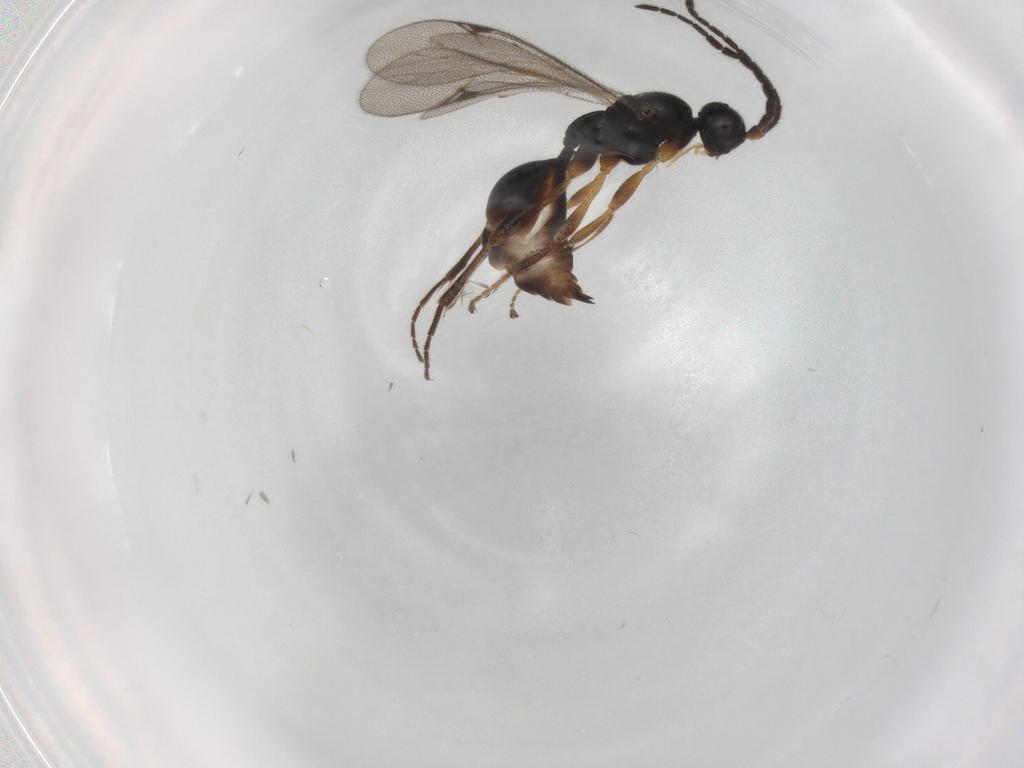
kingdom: Animalia
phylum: Arthropoda
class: Insecta
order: Hymenoptera
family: Proctotrupidae
